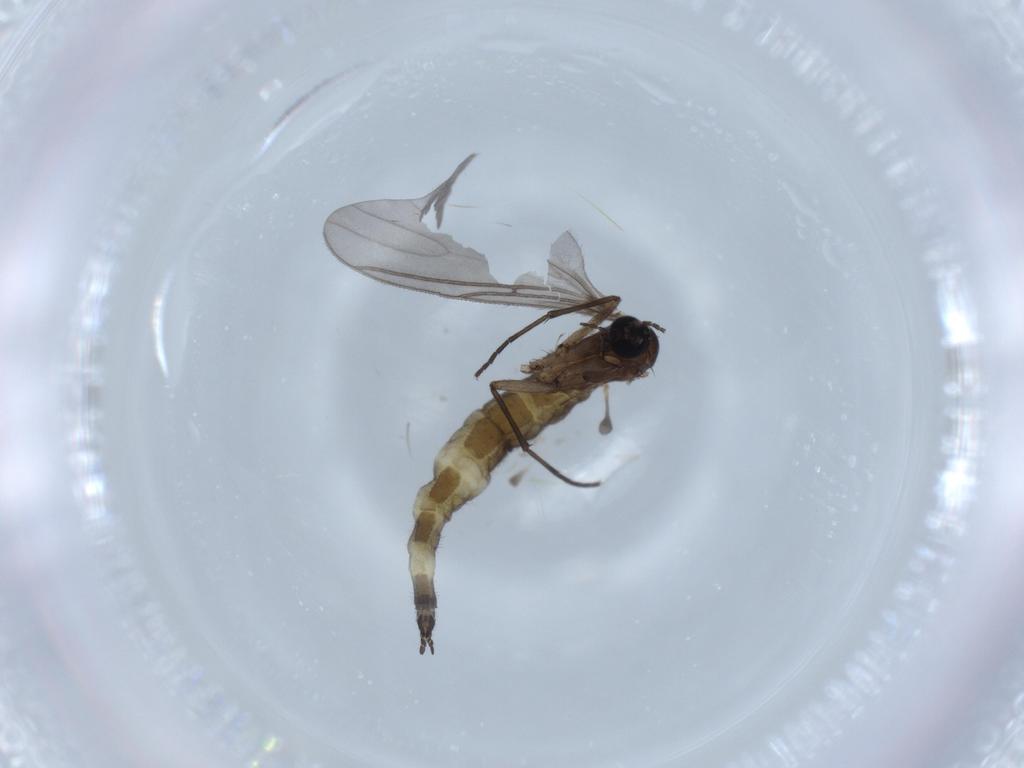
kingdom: Animalia
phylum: Arthropoda
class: Insecta
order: Diptera
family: Sciaridae
